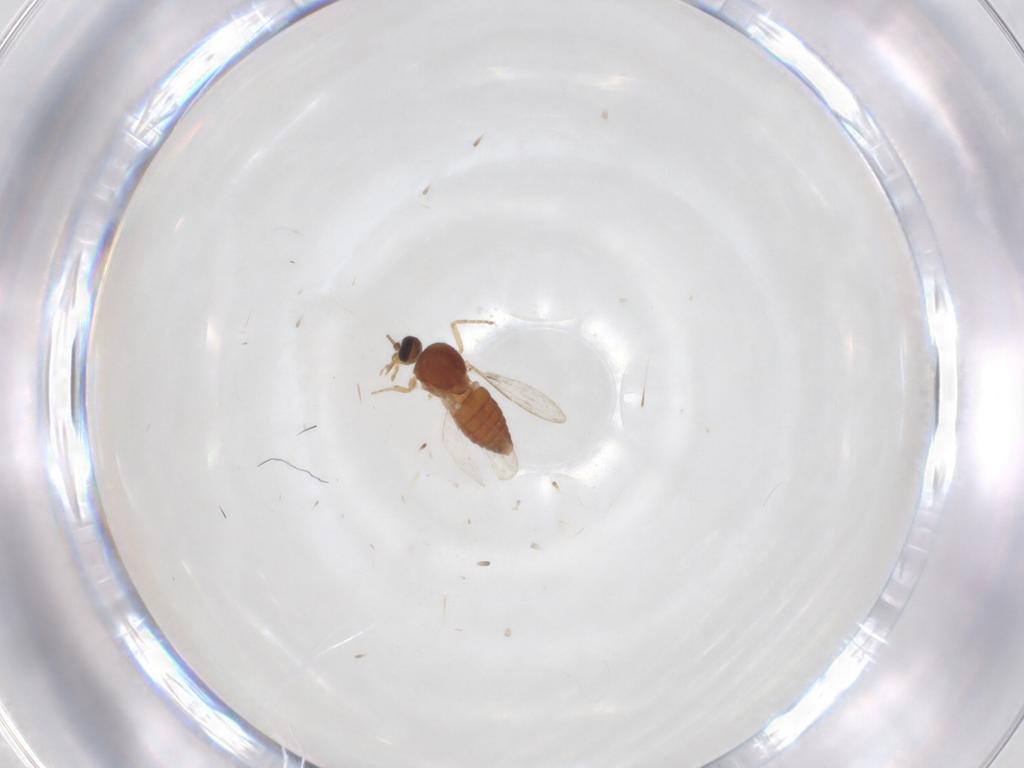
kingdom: Animalia
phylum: Arthropoda
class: Insecta
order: Diptera
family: Ceratopogonidae
